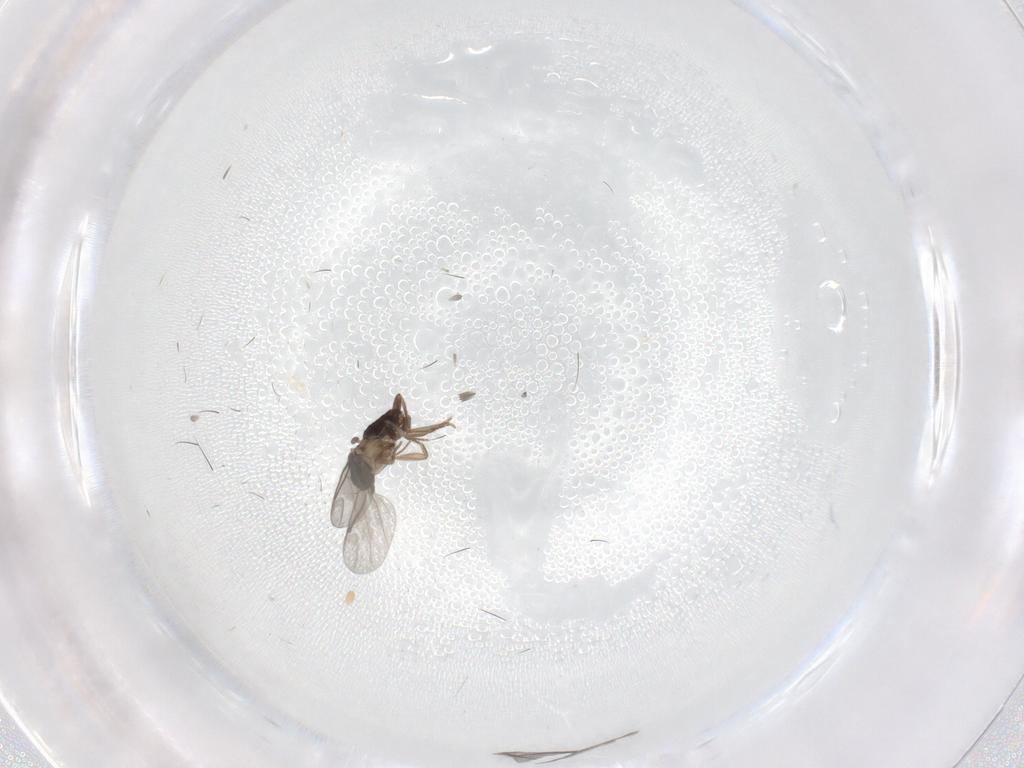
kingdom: Animalia
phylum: Arthropoda
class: Insecta
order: Diptera
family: Sciaridae
